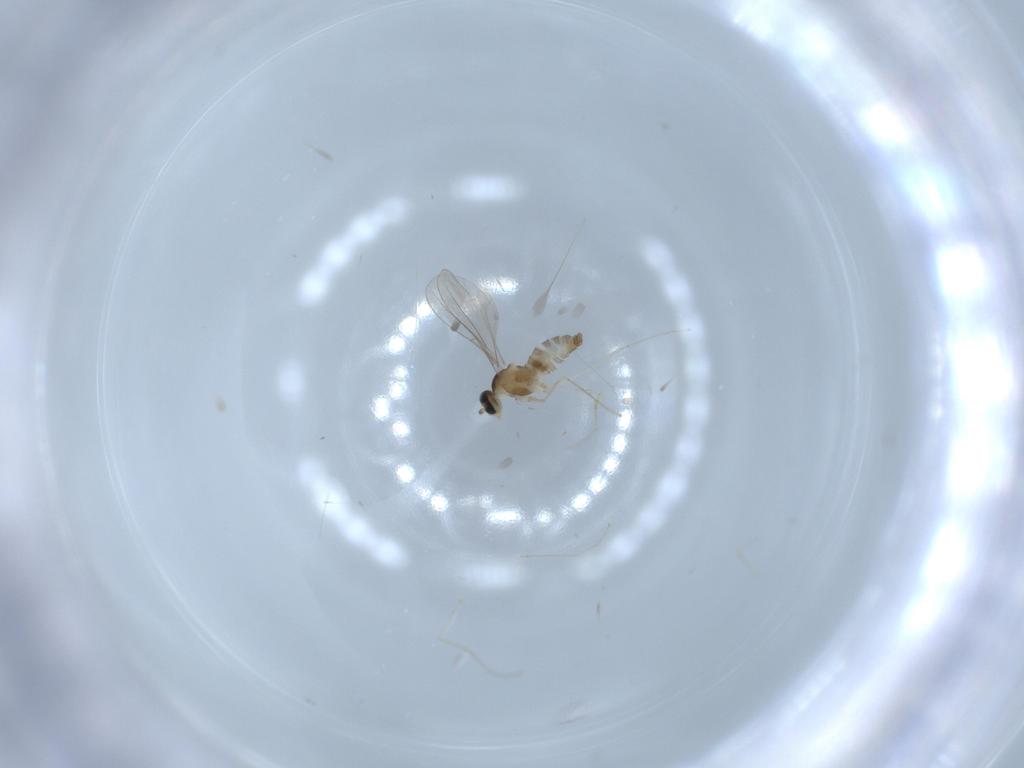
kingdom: Animalia
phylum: Arthropoda
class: Insecta
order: Diptera
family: Cecidomyiidae
